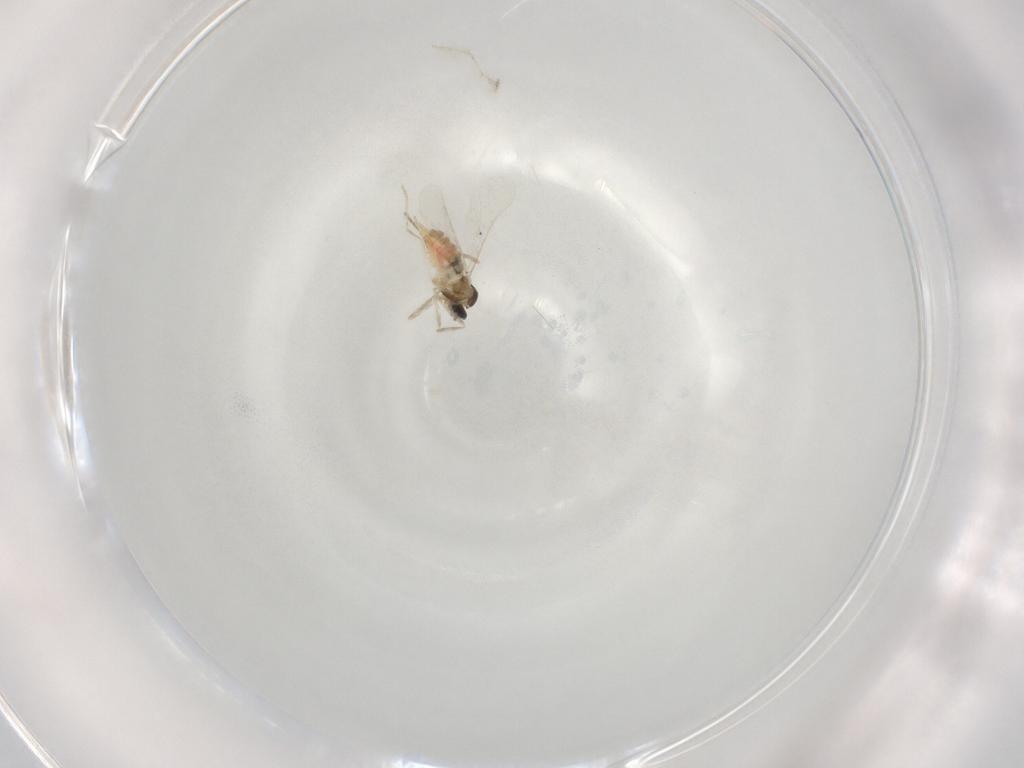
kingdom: Animalia
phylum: Arthropoda
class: Insecta
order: Diptera
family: Cecidomyiidae
